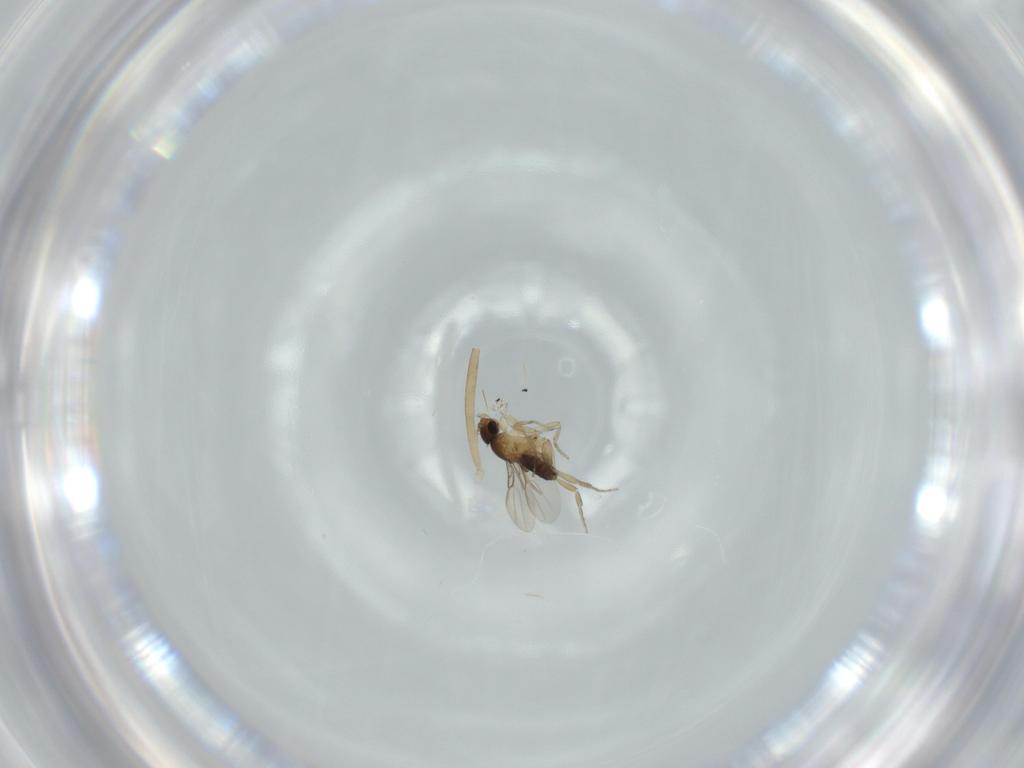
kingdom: Animalia
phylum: Arthropoda
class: Insecta
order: Diptera
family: Cecidomyiidae
